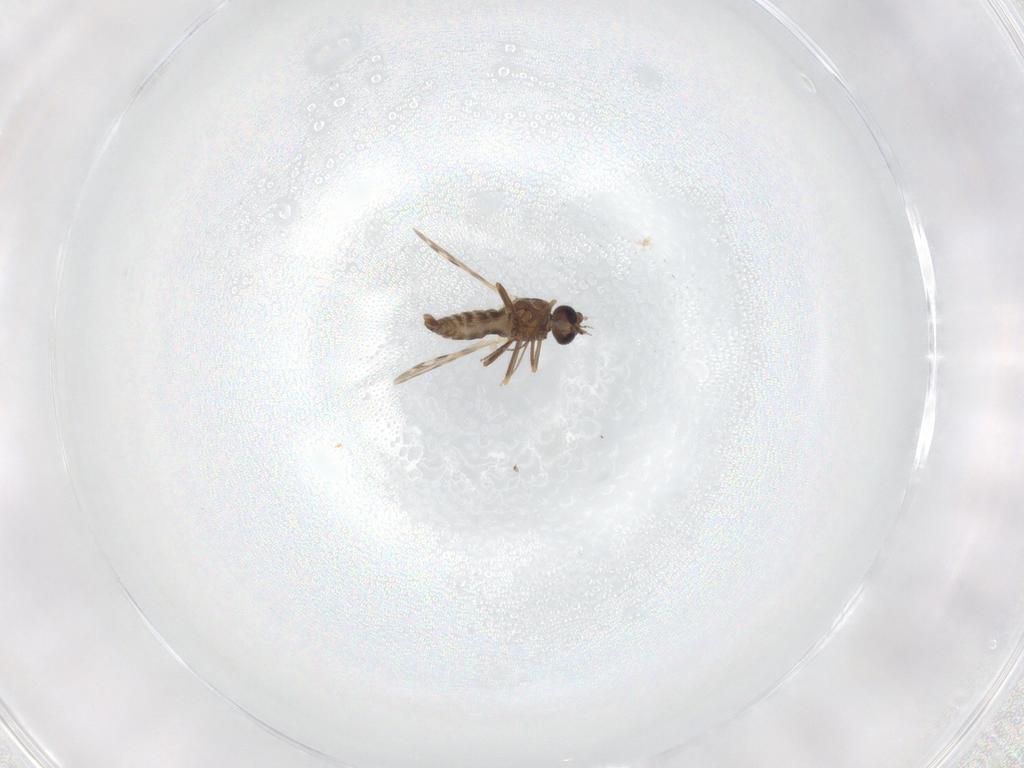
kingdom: Animalia
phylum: Arthropoda
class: Insecta
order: Diptera
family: Ceratopogonidae
